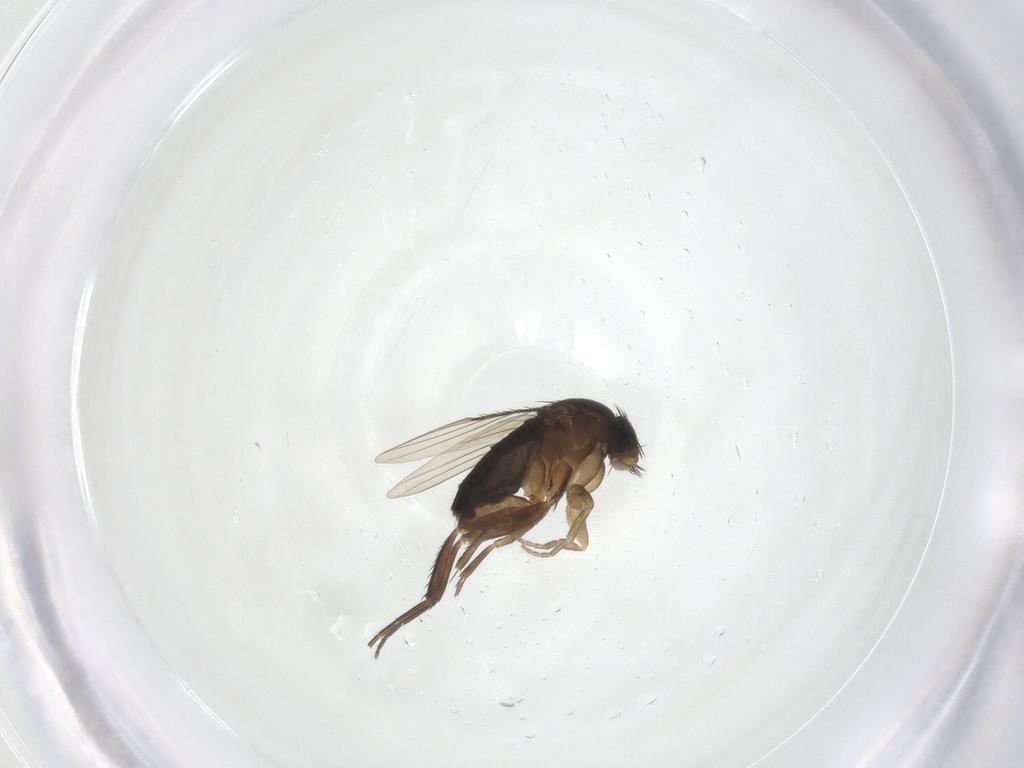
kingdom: Animalia
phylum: Arthropoda
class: Insecta
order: Diptera
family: Phoridae
